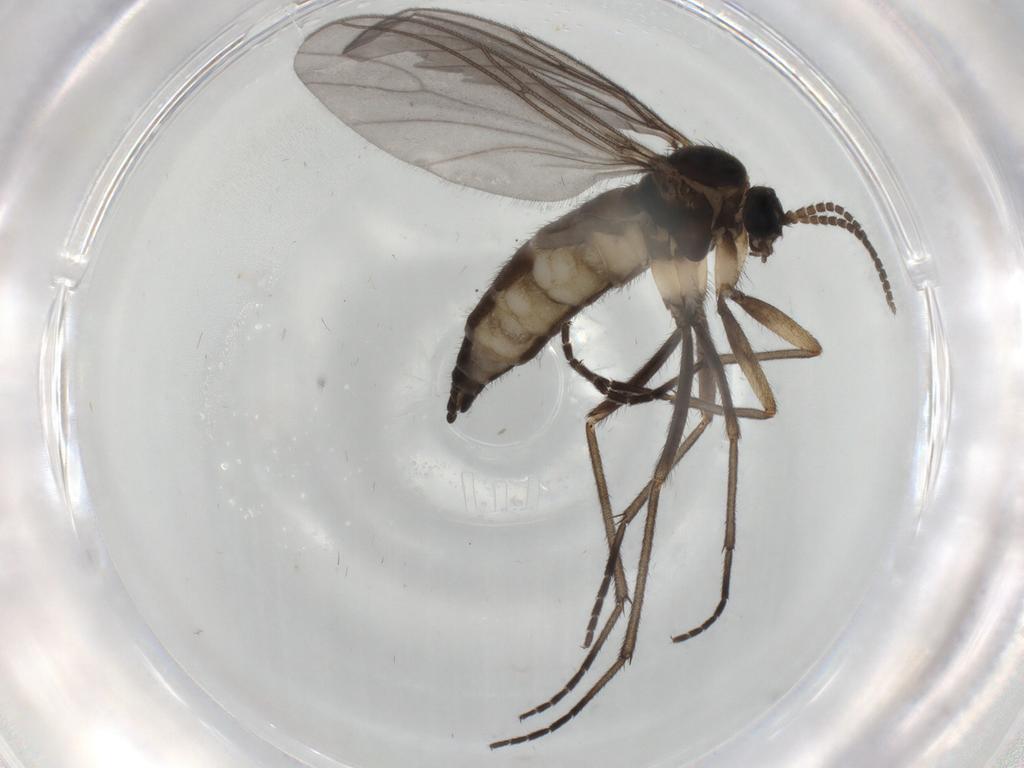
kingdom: Animalia
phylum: Arthropoda
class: Insecta
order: Diptera
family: Sciaridae
